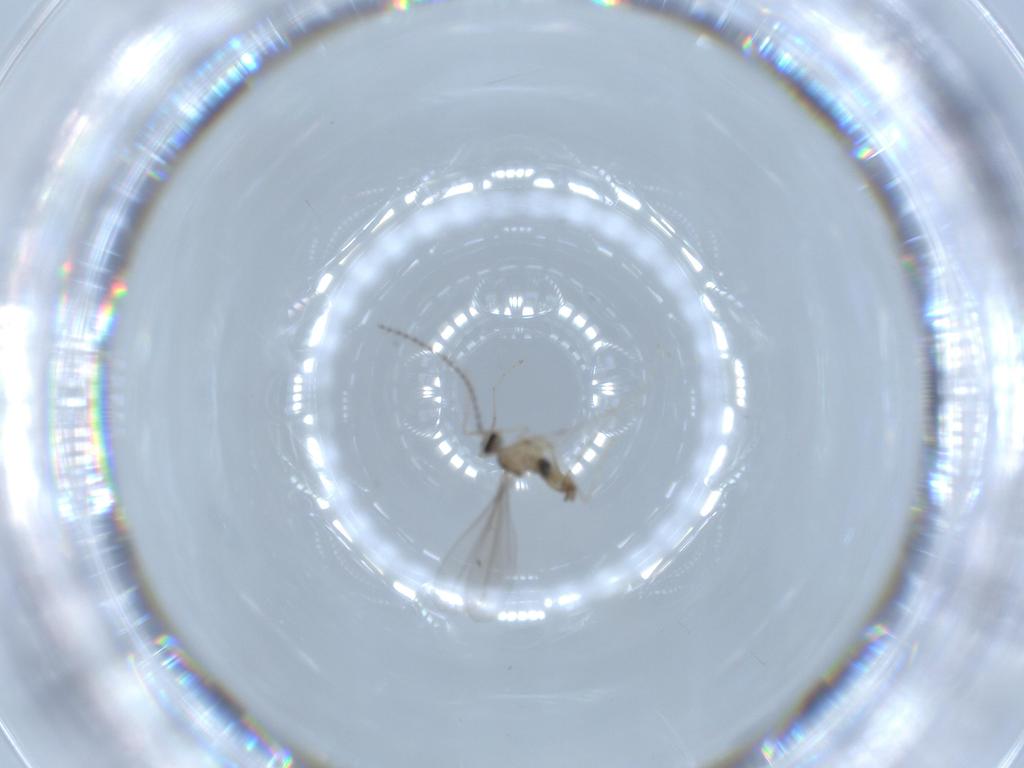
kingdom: Animalia
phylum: Arthropoda
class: Insecta
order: Diptera
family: Cecidomyiidae
